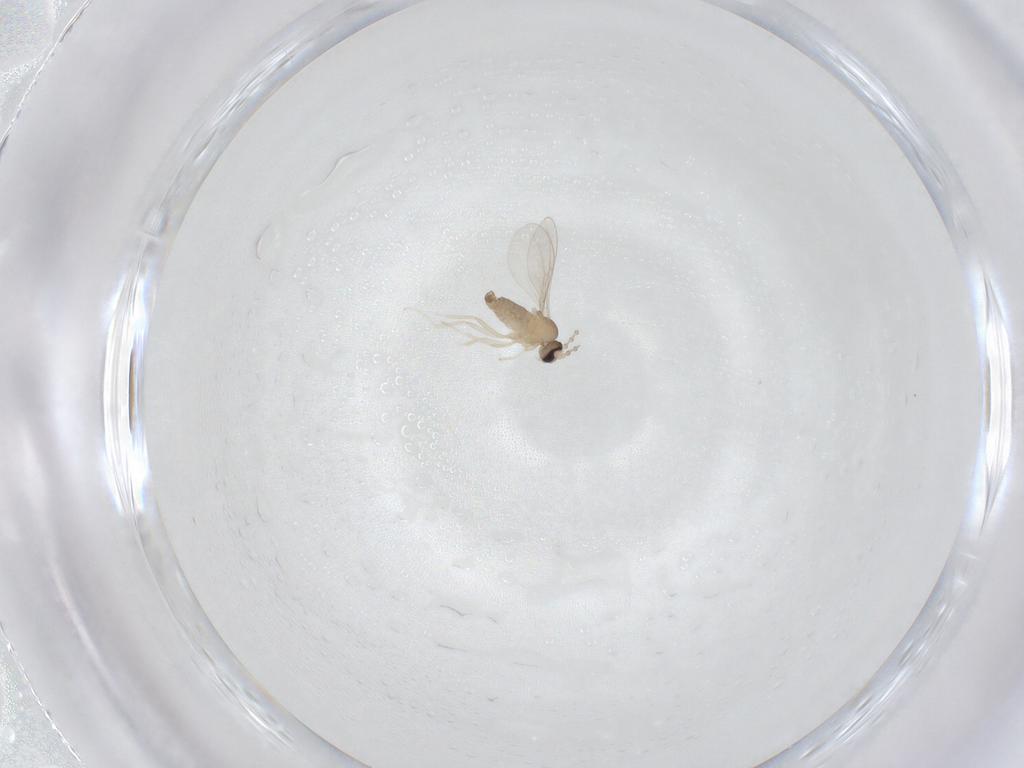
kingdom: Animalia
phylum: Arthropoda
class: Insecta
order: Diptera
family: Cecidomyiidae
